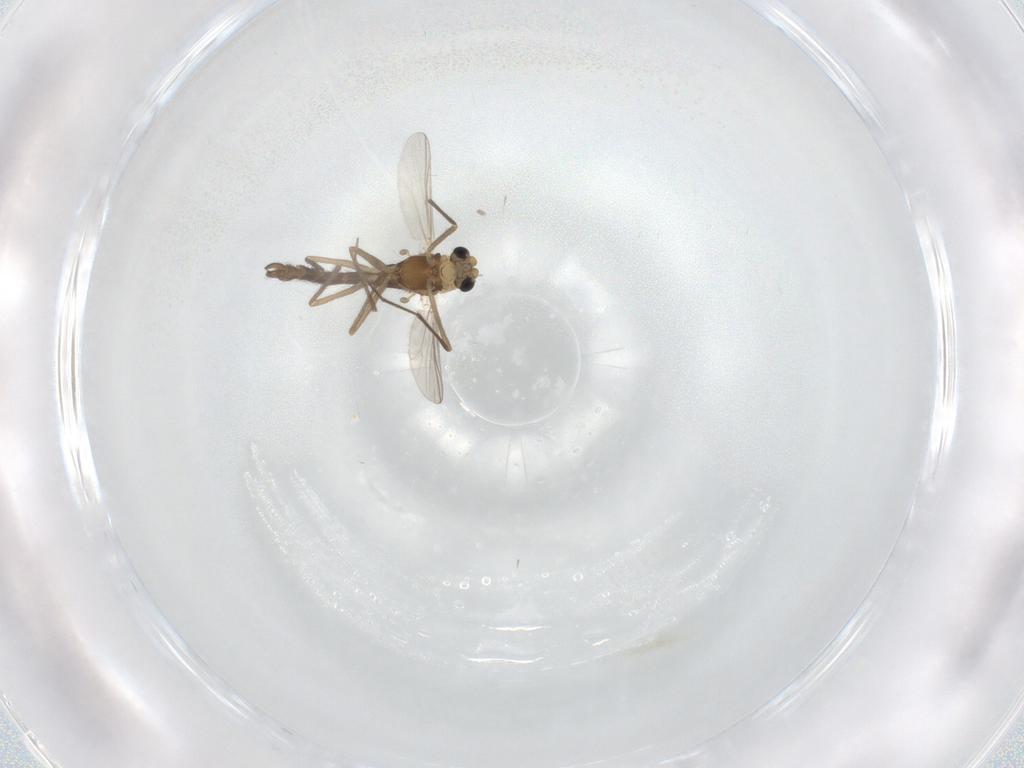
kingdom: Animalia
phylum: Arthropoda
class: Insecta
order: Diptera
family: Chironomidae
